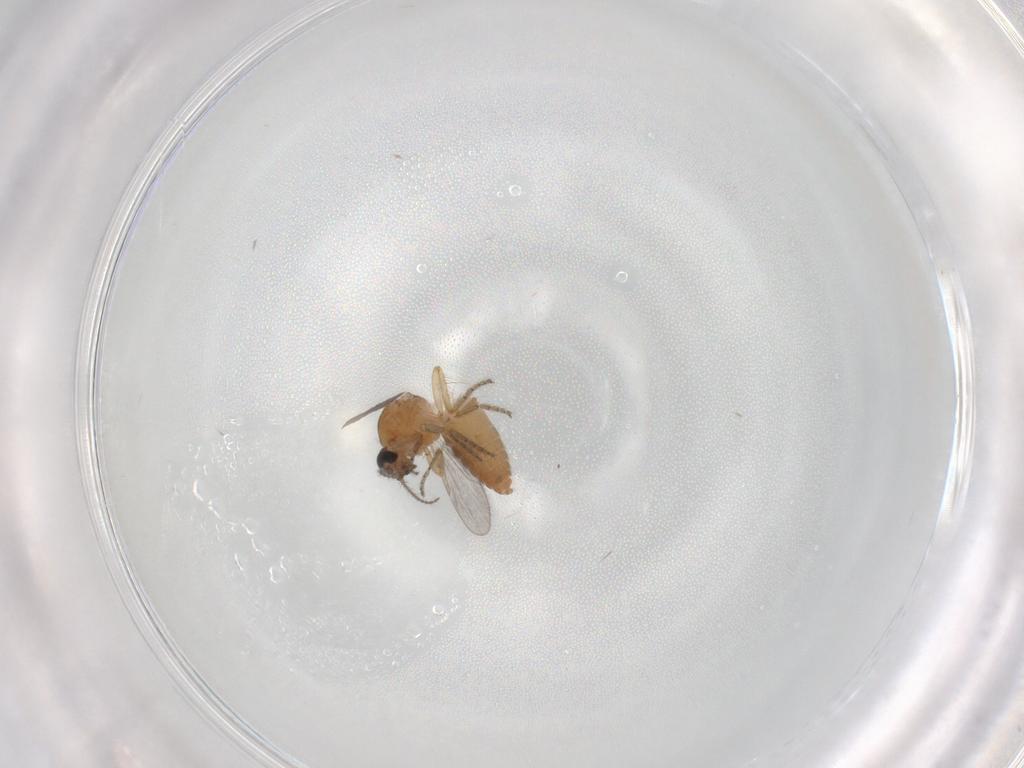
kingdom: Animalia
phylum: Arthropoda
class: Insecta
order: Diptera
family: Ceratopogonidae
